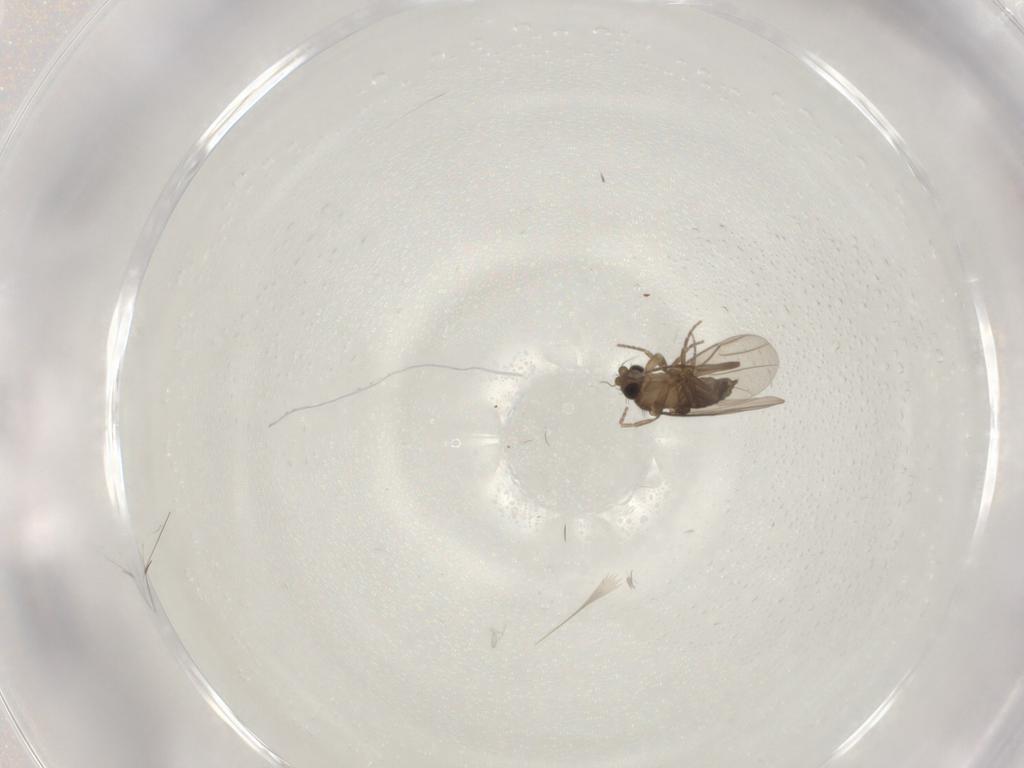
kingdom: Animalia
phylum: Arthropoda
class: Insecta
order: Diptera
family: Phoridae
